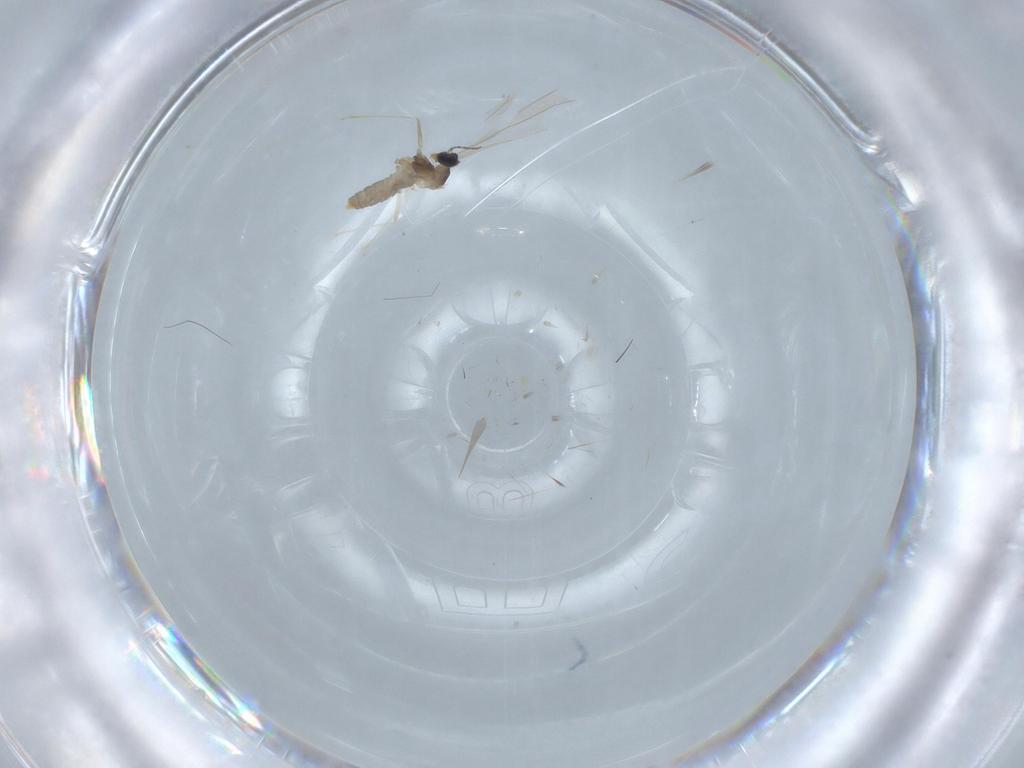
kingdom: Animalia
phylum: Arthropoda
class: Insecta
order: Diptera
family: Cecidomyiidae
